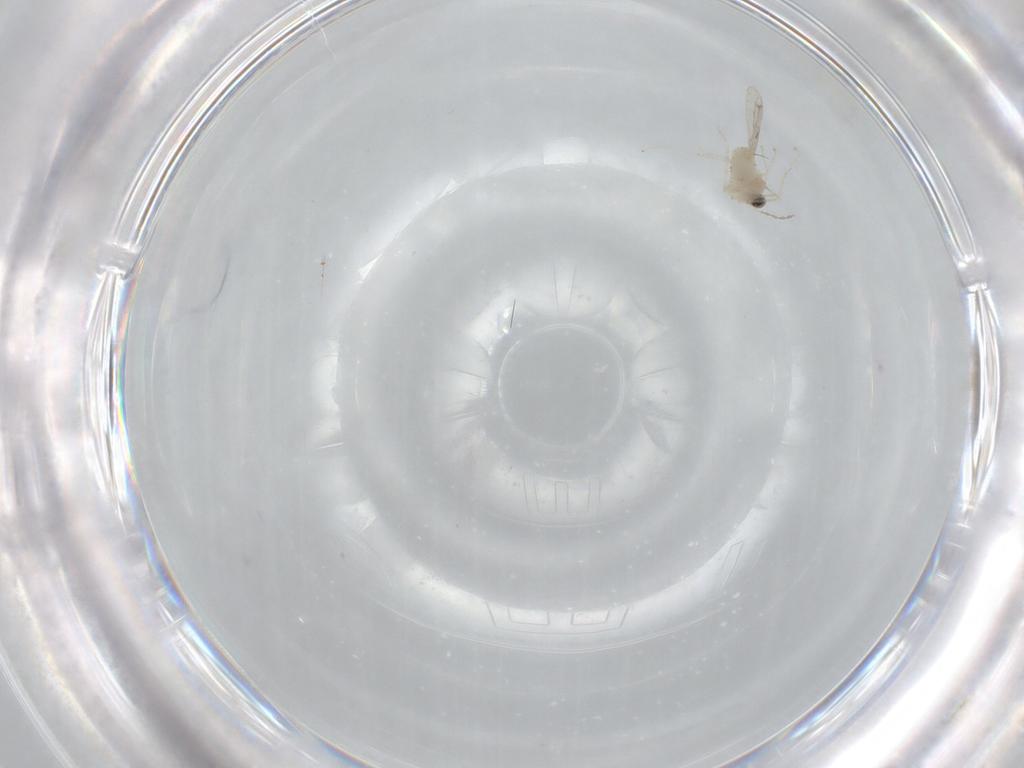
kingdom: Animalia
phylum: Arthropoda
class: Insecta
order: Diptera
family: Cecidomyiidae
